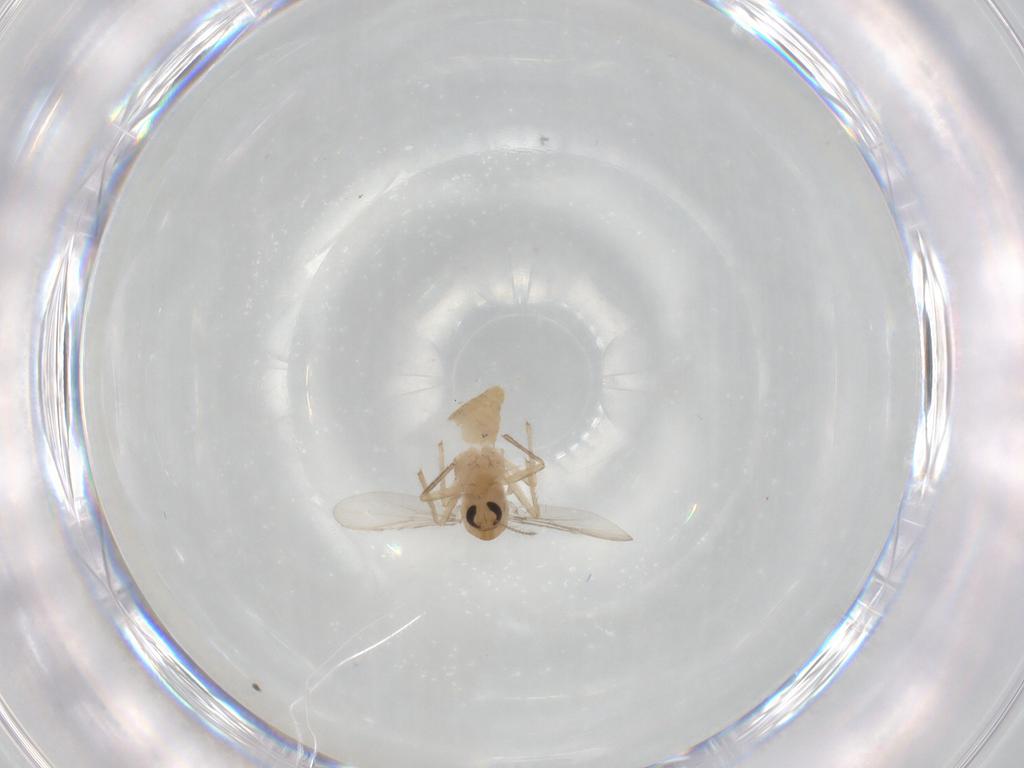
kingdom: Animalia
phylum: Arthropoda
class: Insecta
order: Diptera
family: Chironomidae
